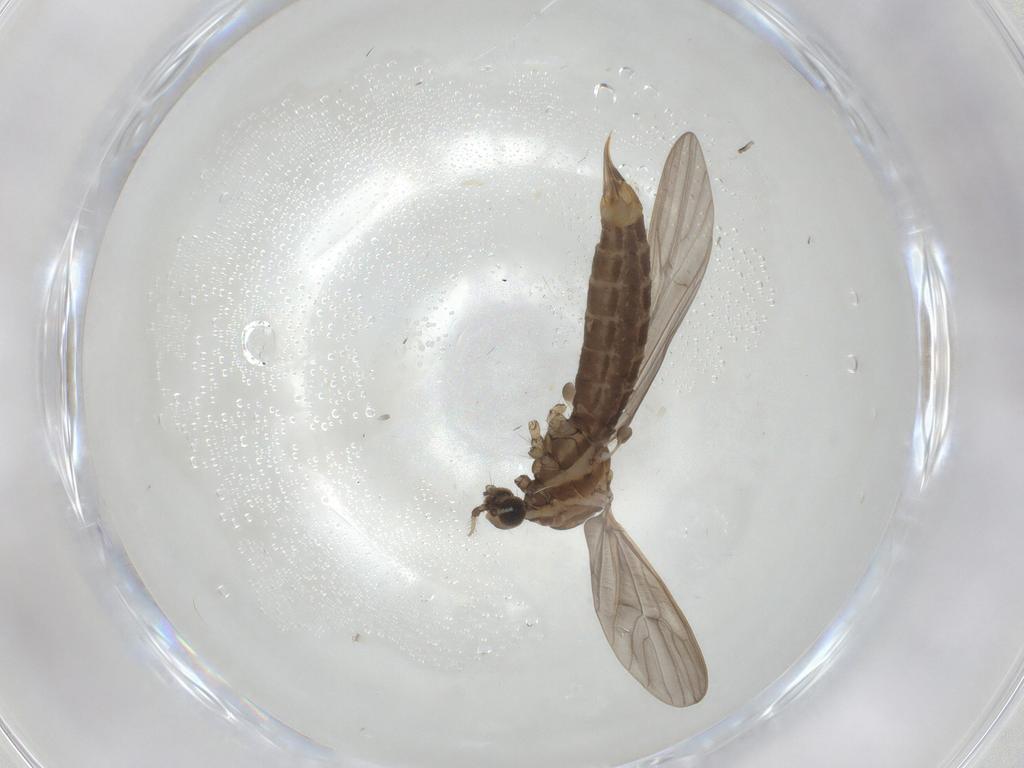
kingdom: Animalia
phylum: Arthropoda
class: Insecta
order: Diptera
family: Limoniidae
